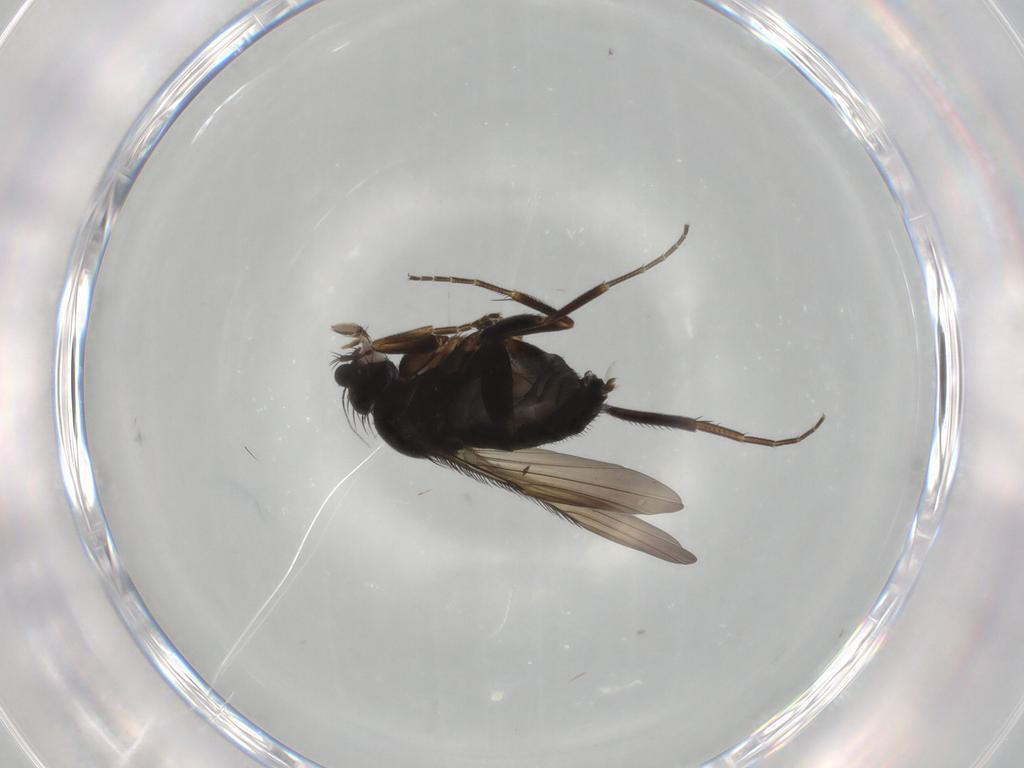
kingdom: Animalia
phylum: Arthropoda
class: Insecta
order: Diptera
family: Phoridae
